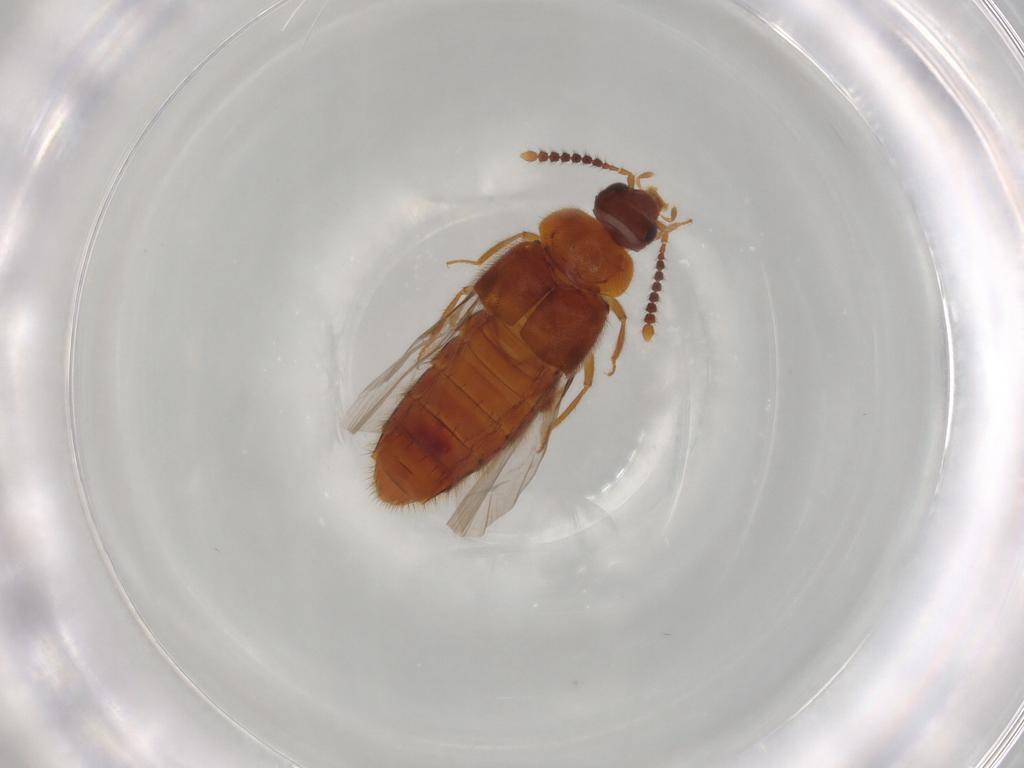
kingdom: Animalia
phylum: Arthropoda
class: Insecta
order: Coleoptera
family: Staphylinidae
